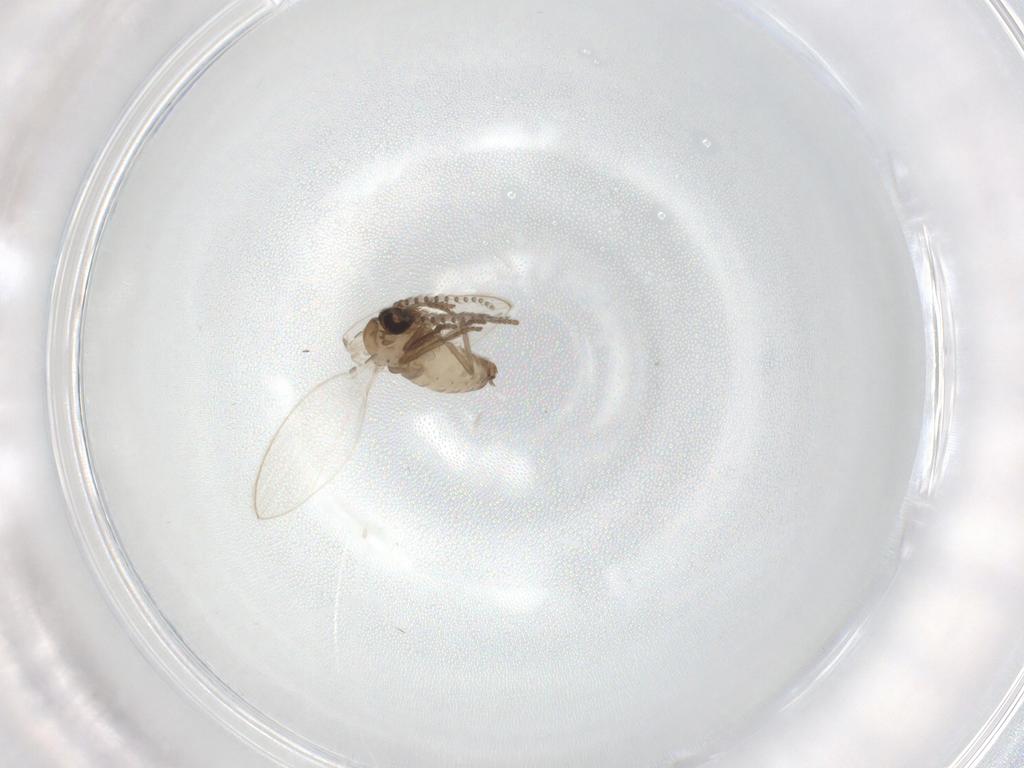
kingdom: Animalia
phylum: Arthropoda
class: Insecta
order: Diptera
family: Psychodidae
